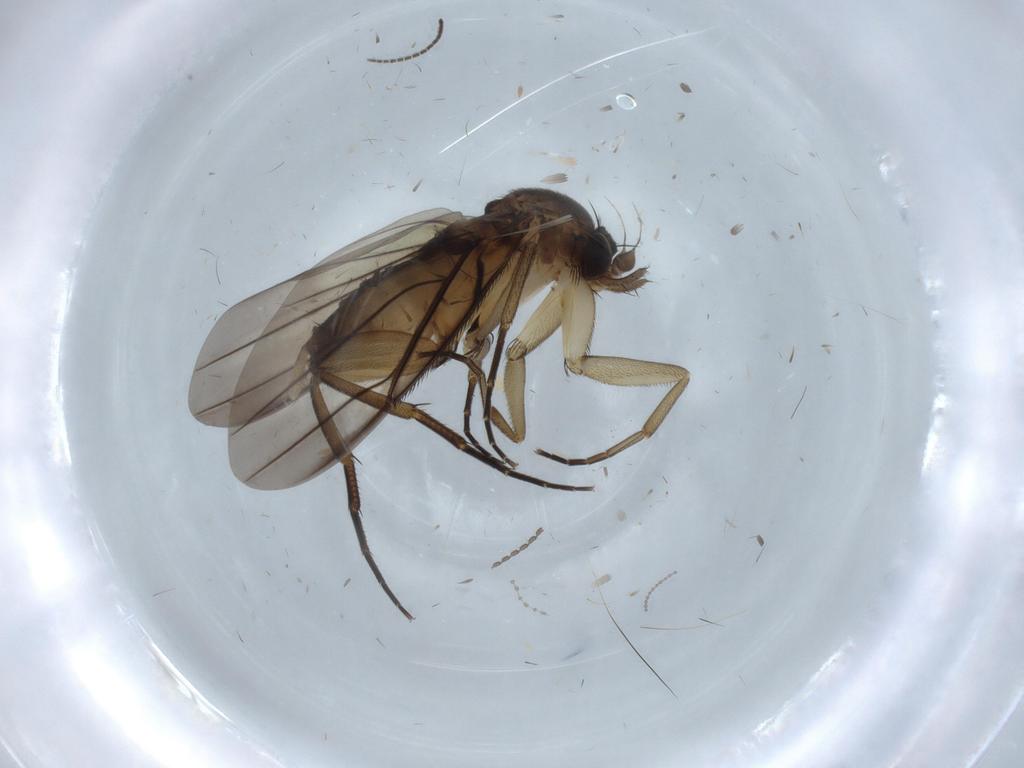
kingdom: Animalia
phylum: Arthropoda
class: Insecta
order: Diptera
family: Sciaridae
